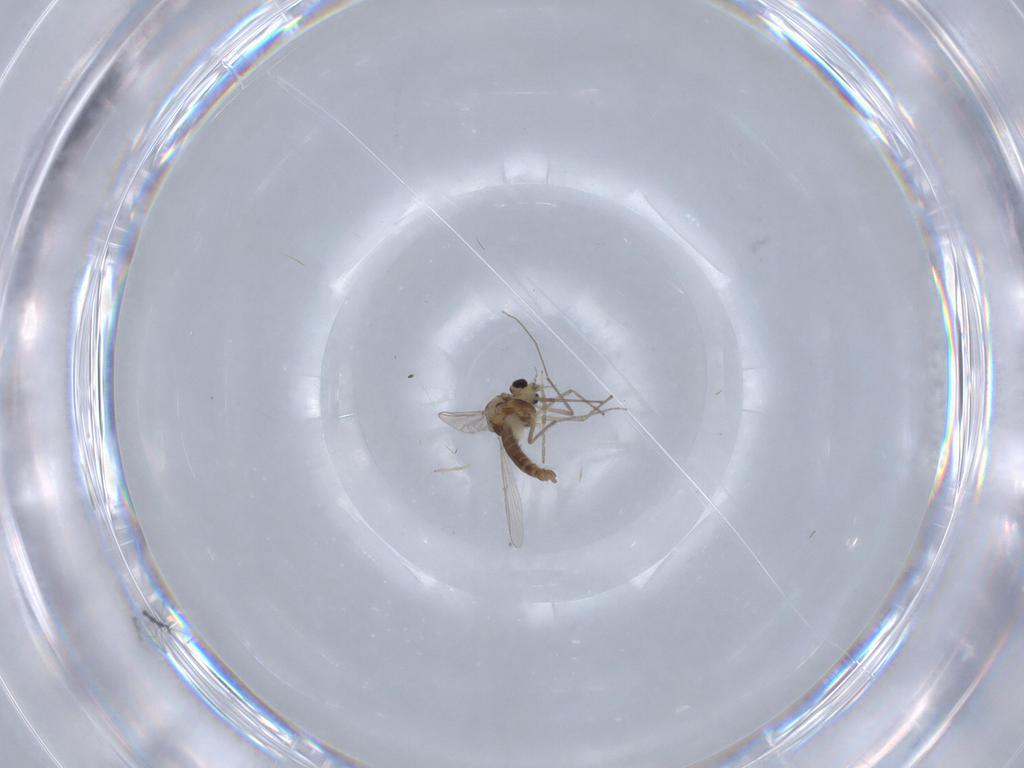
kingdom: Animalia
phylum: Arthropoda
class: Insecta
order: Diptera
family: Chironomidae
